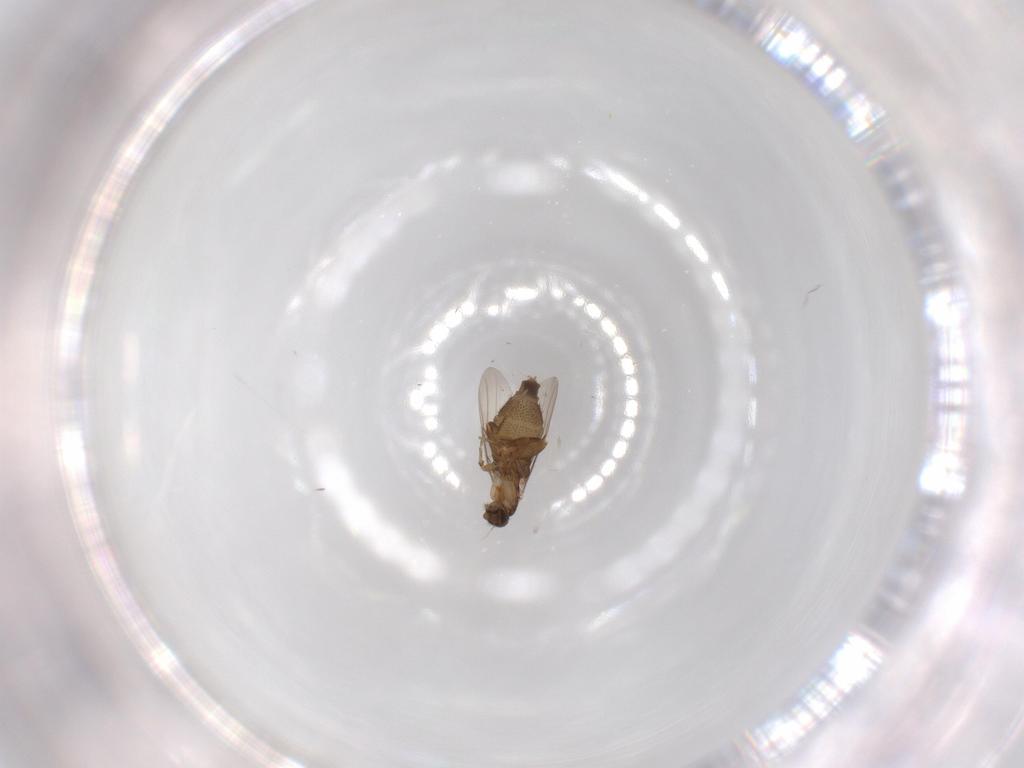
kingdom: Animalia
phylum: Arthropoda
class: Insecta
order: Diptera
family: Phoridae
